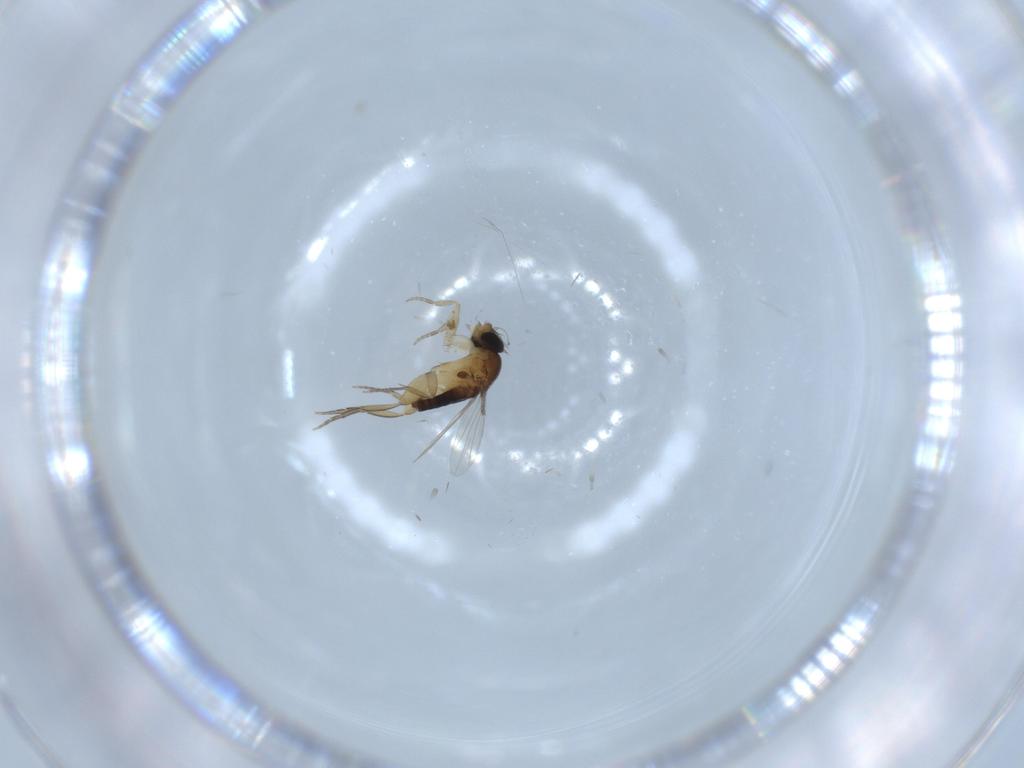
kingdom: Animalia
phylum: Arthropoda
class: Insecta
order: Diptera
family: Phoridae
